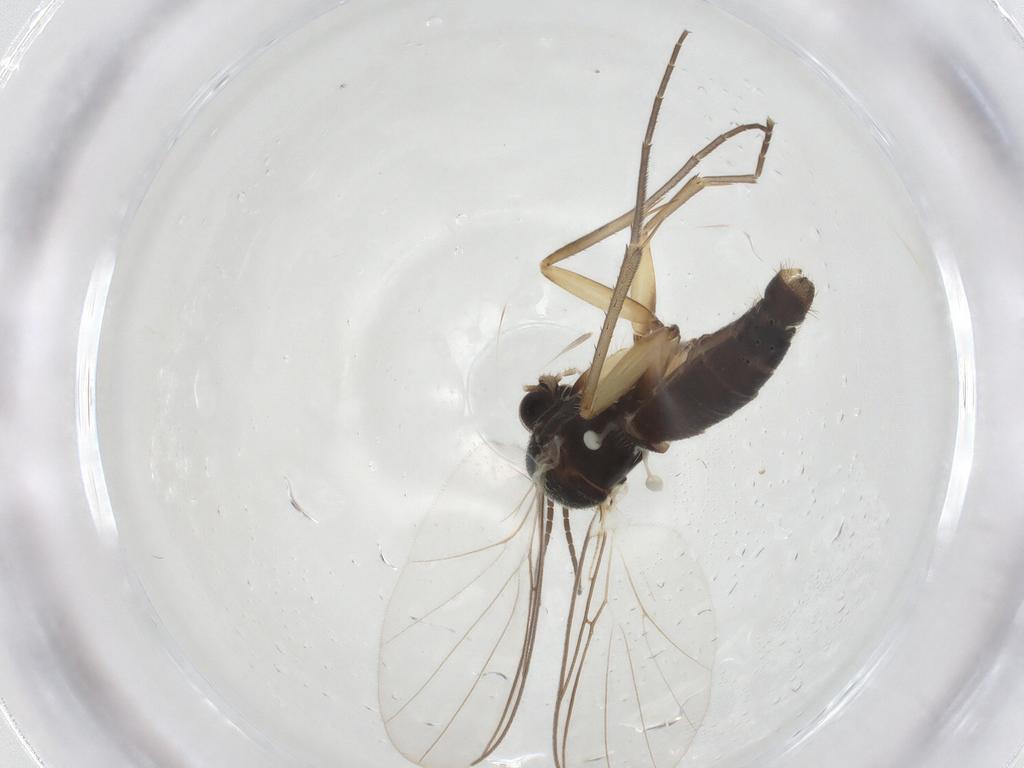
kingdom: Animalia
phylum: Arthropoda
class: Insecta
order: Diptera
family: Mycetophilidae
